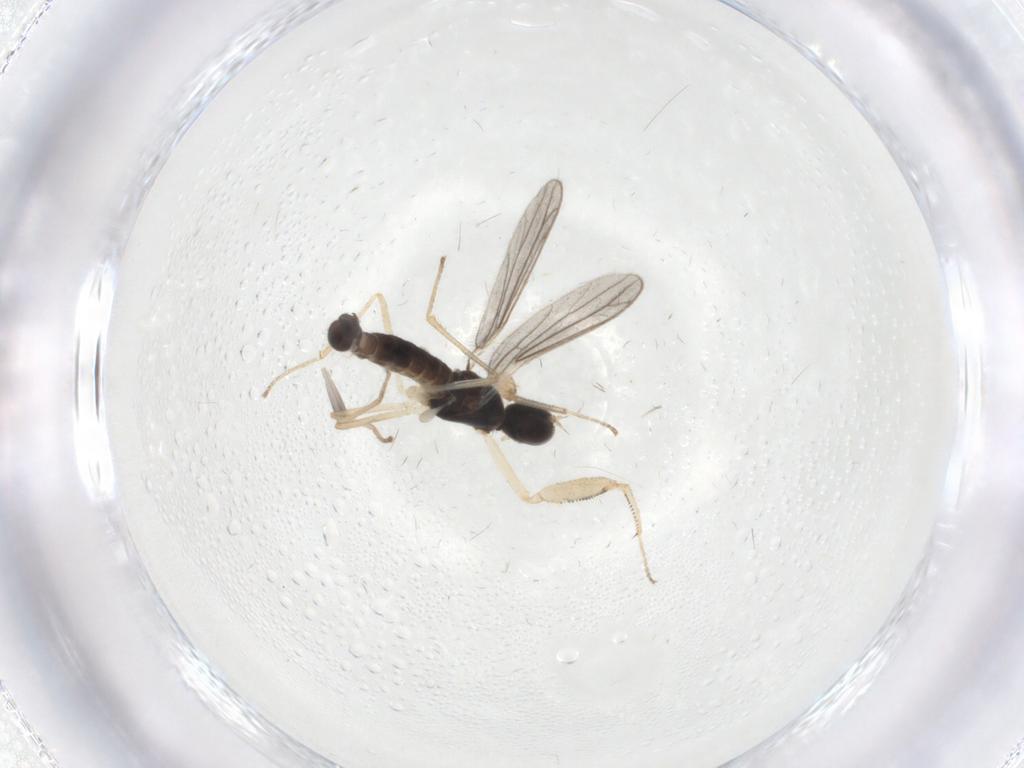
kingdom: Animalia
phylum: Arthropoda
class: Insecta
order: Diptera
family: Empididae
